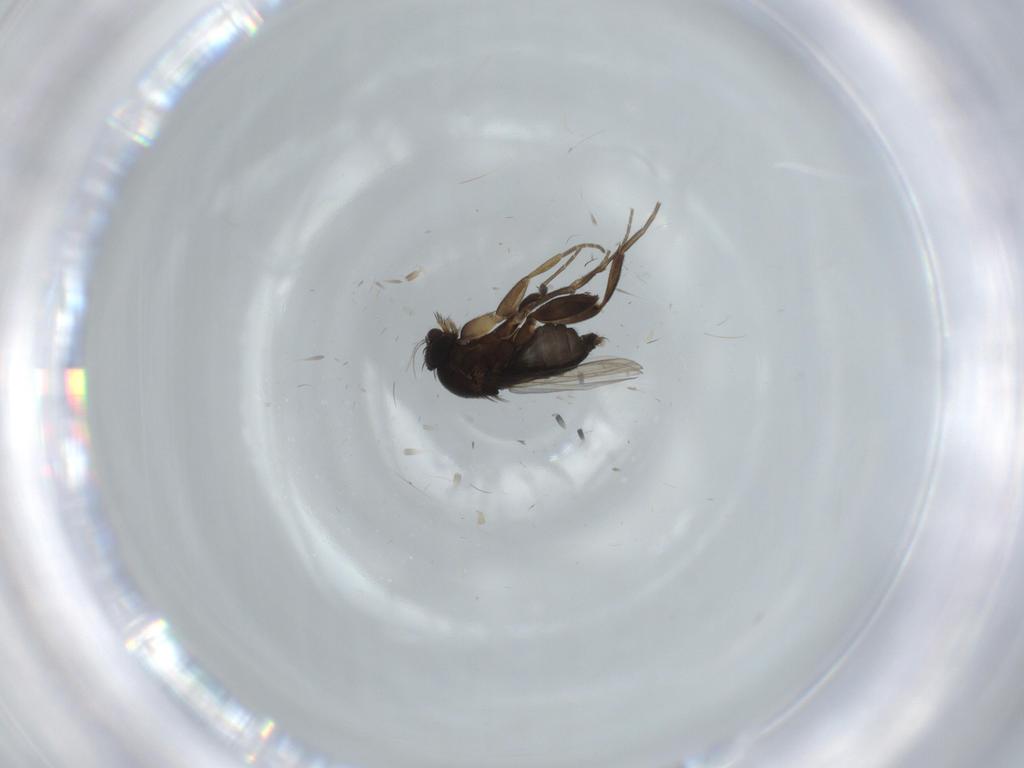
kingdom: Animalia
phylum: Arthropoda
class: Insecta
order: Diptera
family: Phoridae
